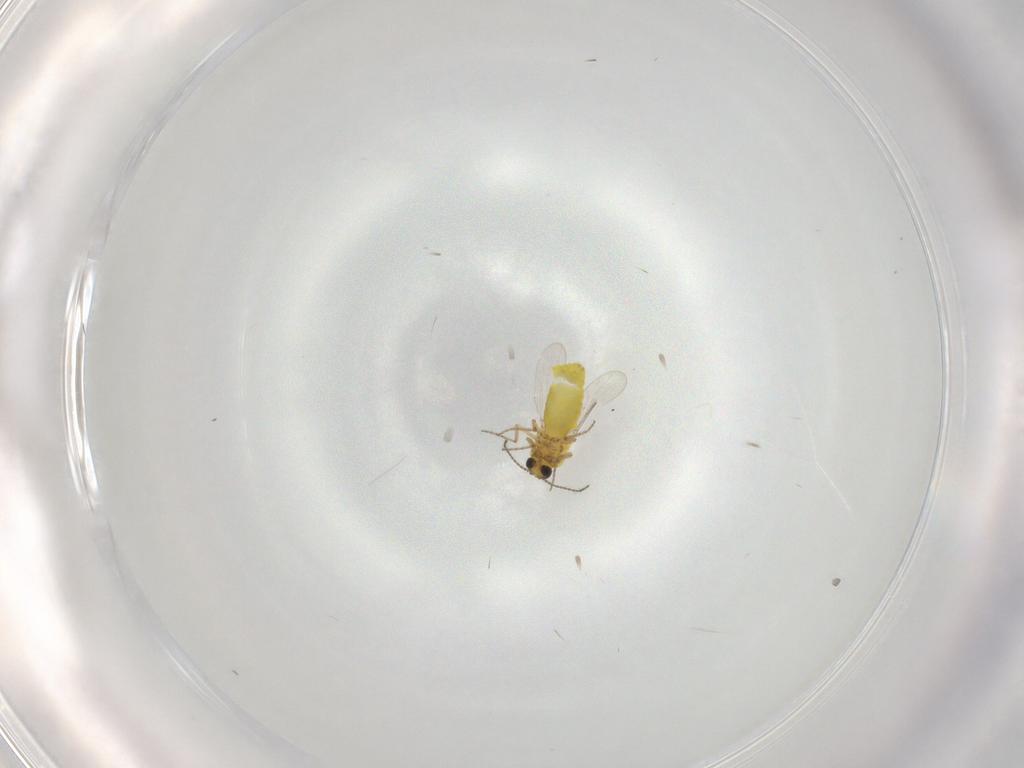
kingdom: Animalia
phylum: Arthropoda
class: Insecta
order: Diptera
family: Ceratopogonidae
